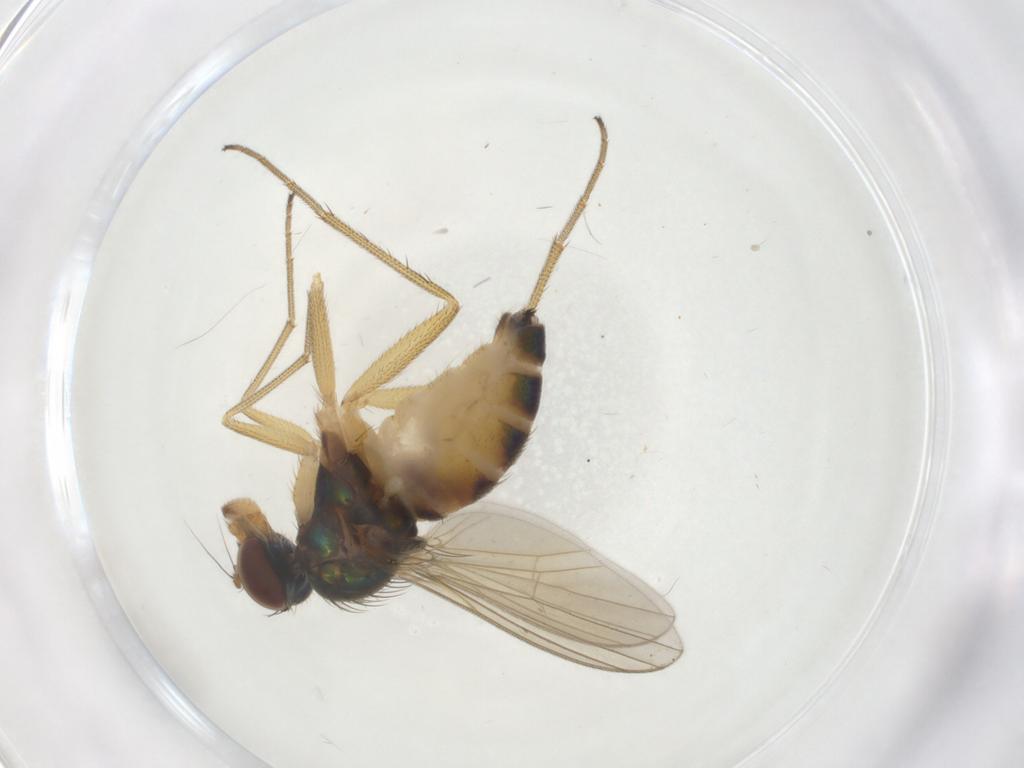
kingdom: Animalia
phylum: Arthropoda
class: Insecta
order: Diptera
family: Dolichopodidae
